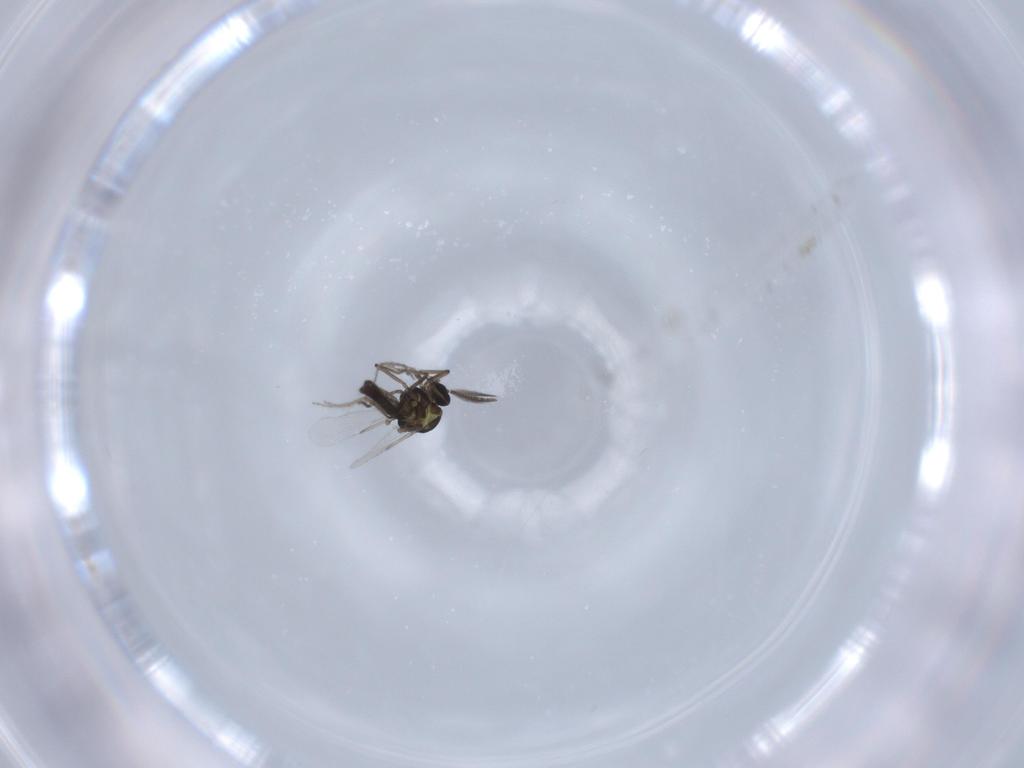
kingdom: Animalia
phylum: Arthropoda
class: Insecta
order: Diptera
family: Ceratopogonidae
